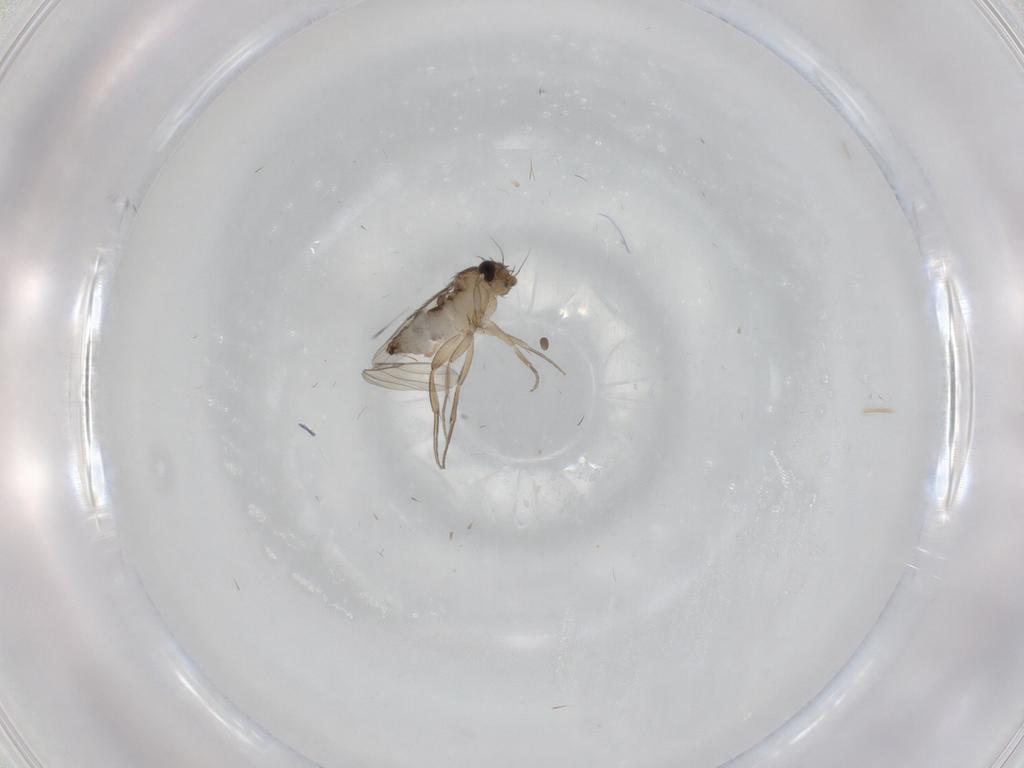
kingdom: Animalia
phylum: Arthropoda
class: Insecta
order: Diptera
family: Phoridae
